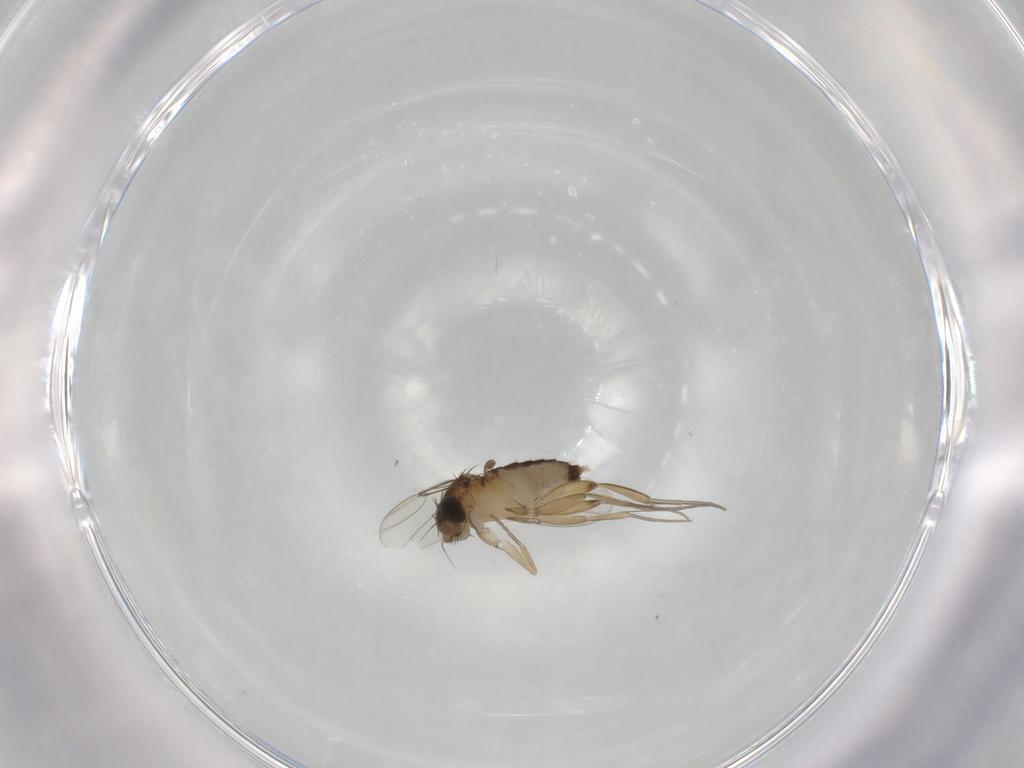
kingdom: Animalia
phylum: Arthropoda
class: Insecta
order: Diptera
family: Phoridae
